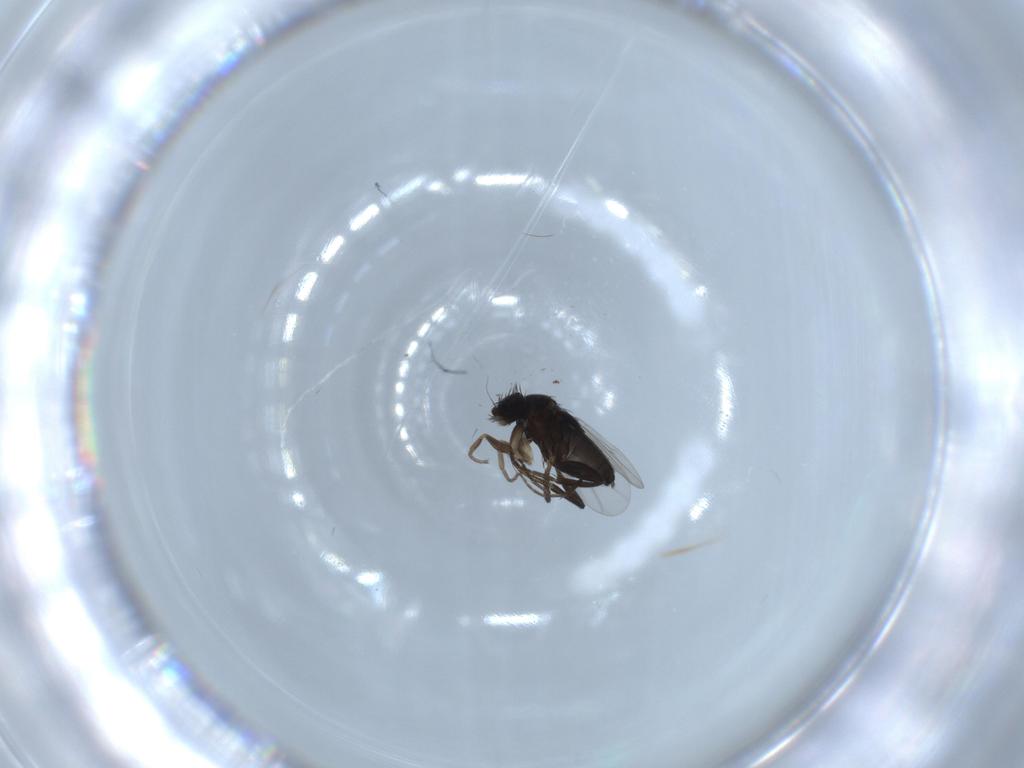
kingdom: Animalia
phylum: Arthropoda
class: Insecta
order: Diptera
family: Phoridae
